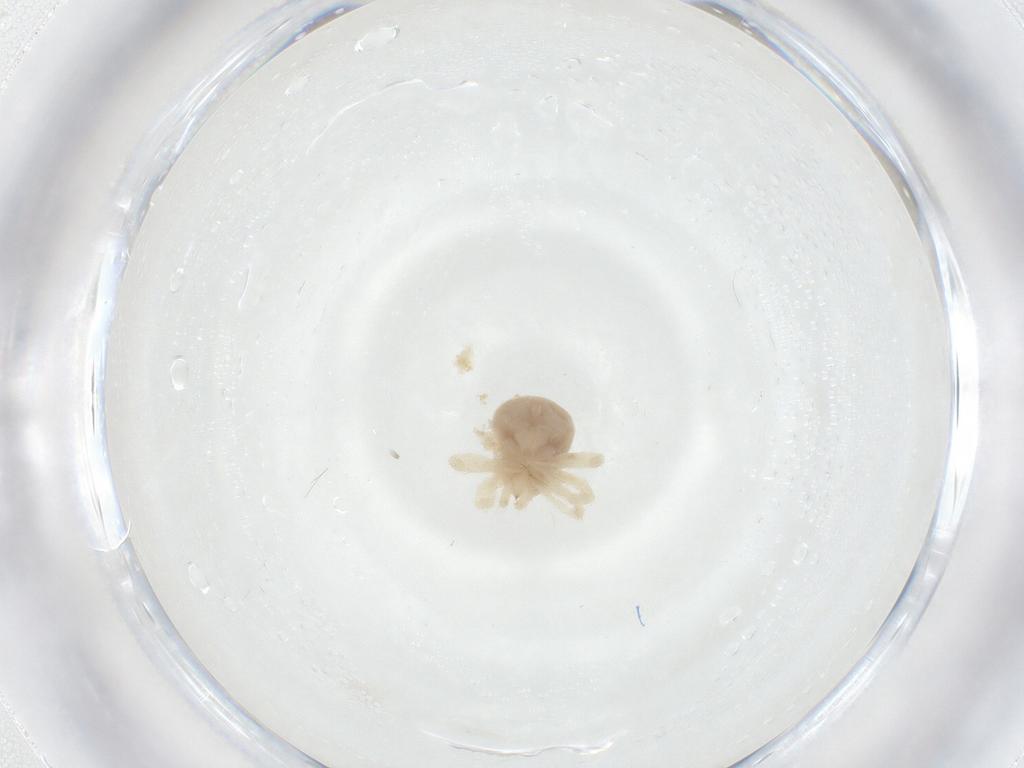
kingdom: Animalia
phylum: Arthropoda
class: Arachnida
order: Trombidiformes
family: Anystidae
